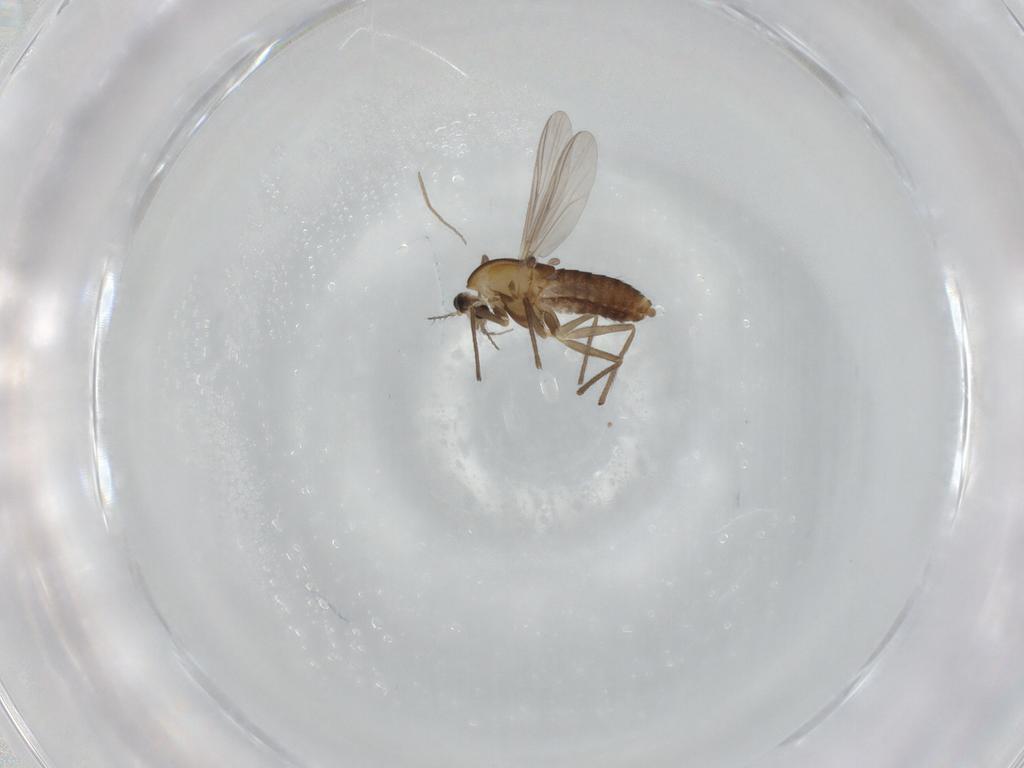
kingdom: Animalia
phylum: Arthropoda
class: Insecta
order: Diptera
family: Chironomidae
